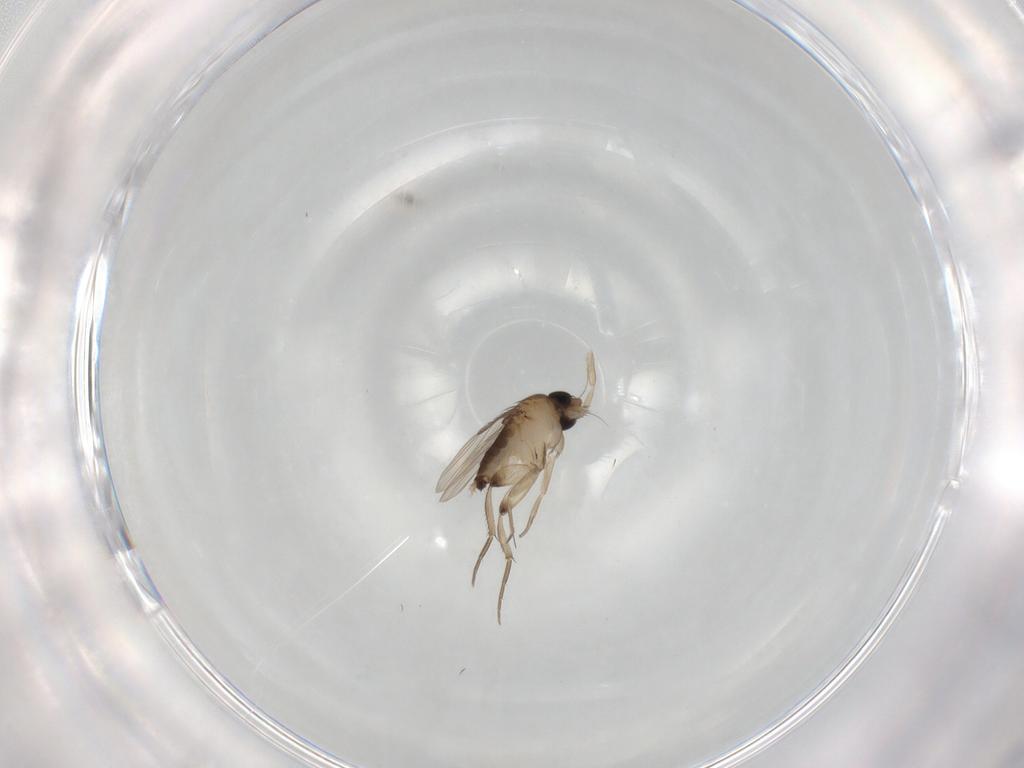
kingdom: Animalia
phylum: Arthropoda
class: Insecta
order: Diptera
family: Phoridae
